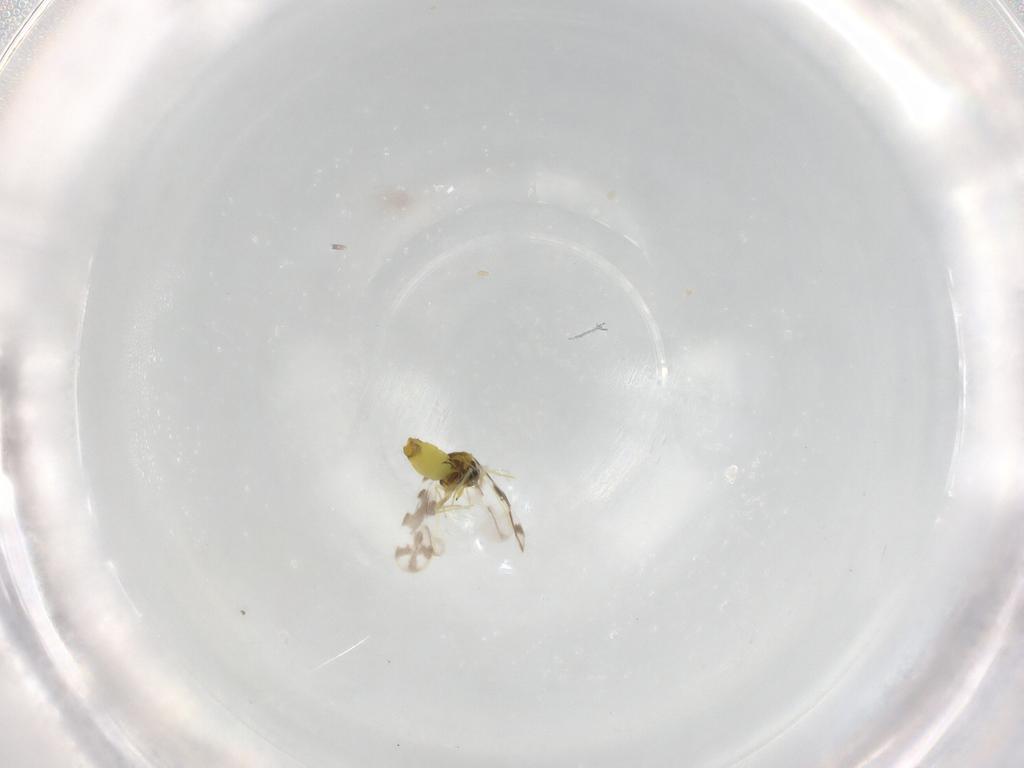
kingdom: Animalia
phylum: Arthropoda
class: Insecta
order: Hemiptera
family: Aleyrodidae
